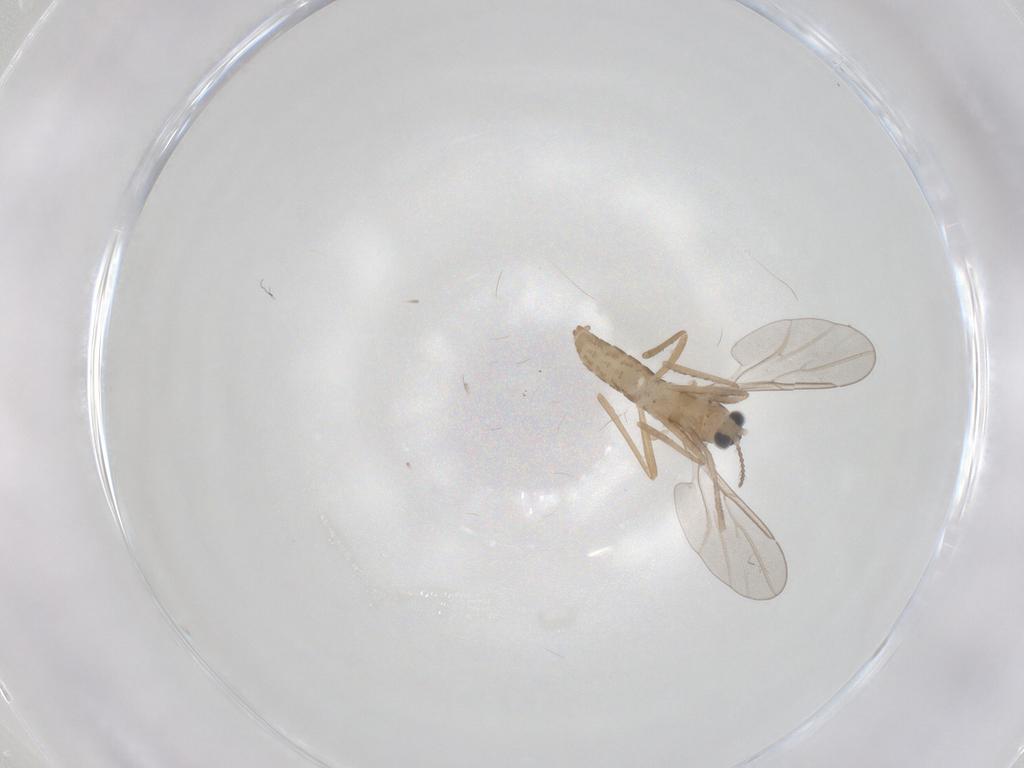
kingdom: Animalia
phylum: Arthropoda
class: Insecta
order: Diptera
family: Cecidomyiidae
